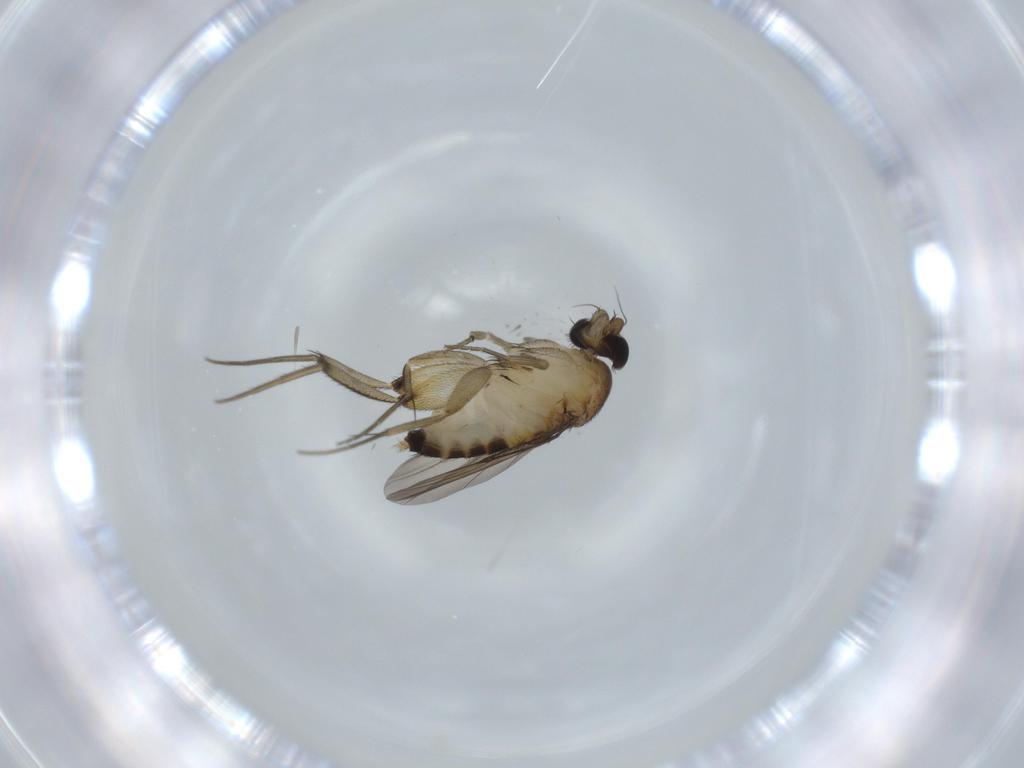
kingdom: Animalia
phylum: Arthropoda
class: Insecta
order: Diptera
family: Phoridae
